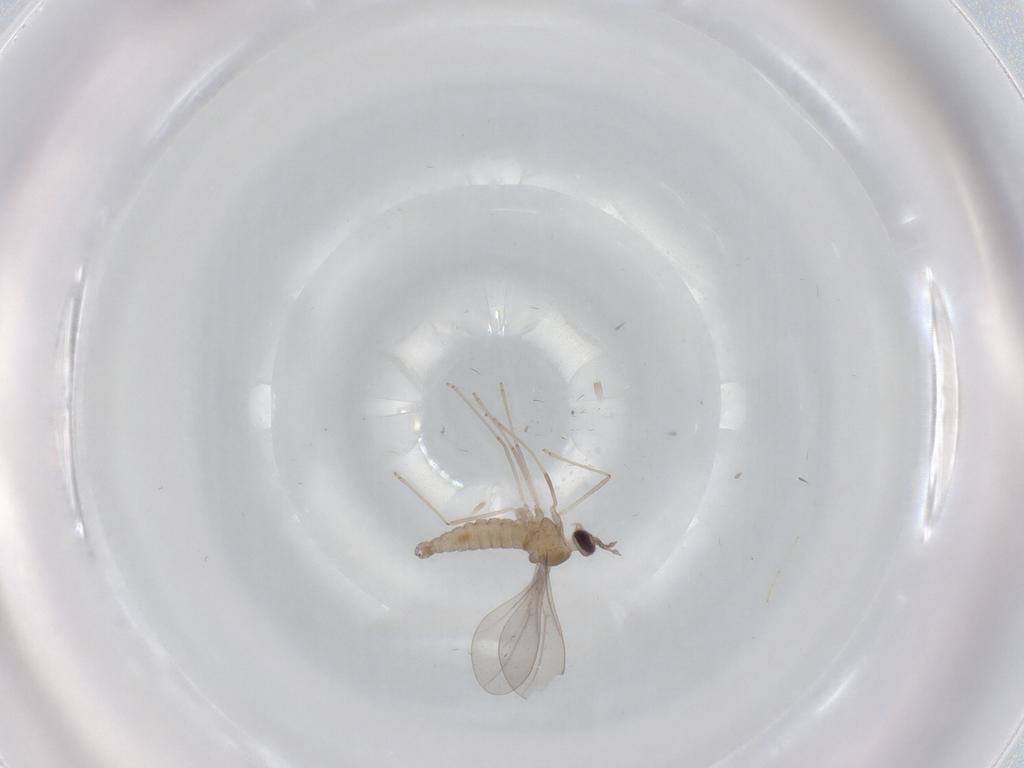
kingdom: Animalia
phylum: Arthropoda
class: Insecta
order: Diptera
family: Cecidomyiidae
